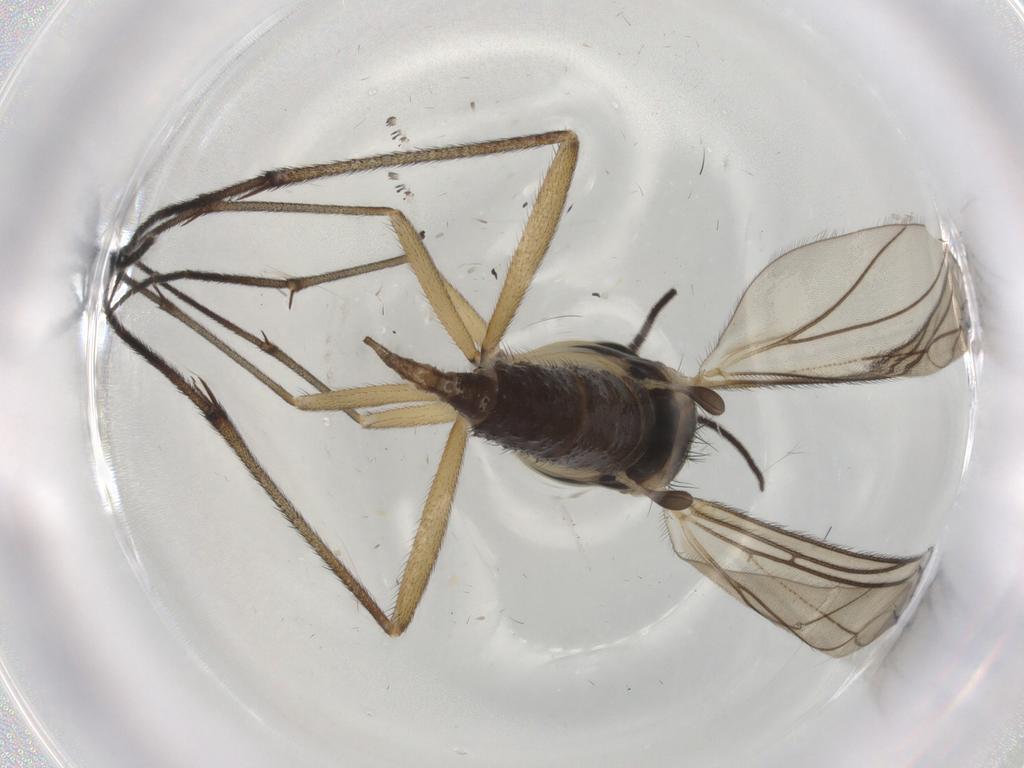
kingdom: Animalia
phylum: Arthropoda
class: Insecta
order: Diptera
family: Sciaridae
